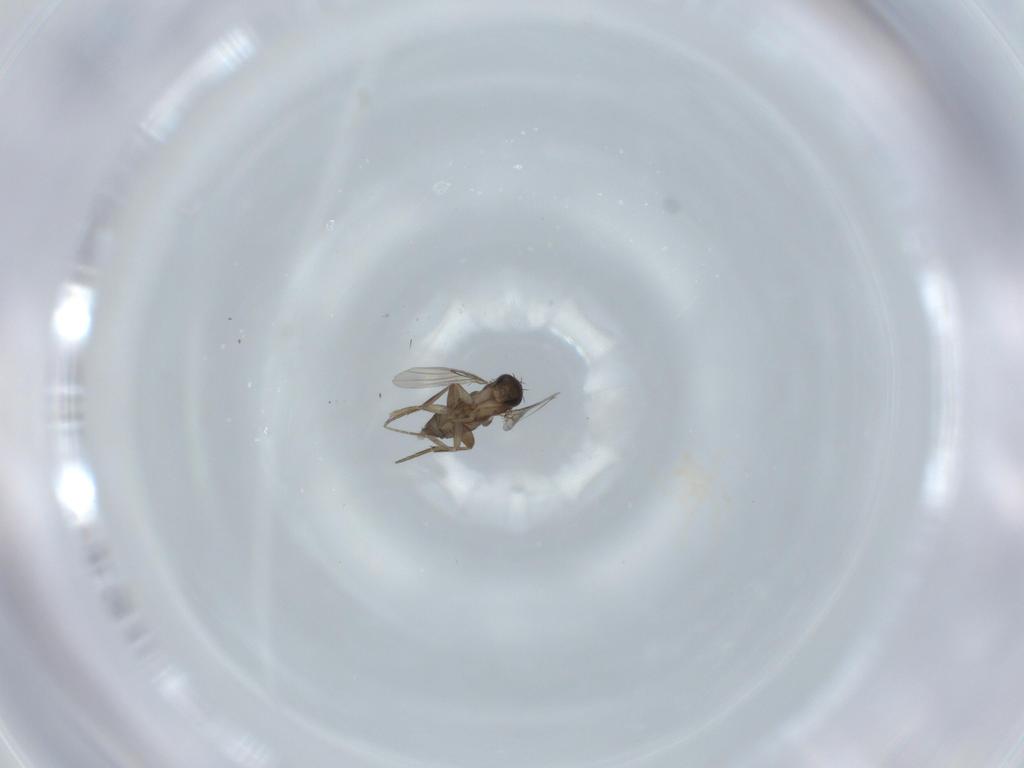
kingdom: Animalia
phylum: Arthropoda
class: Insecta
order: Diptera
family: Phoridae
